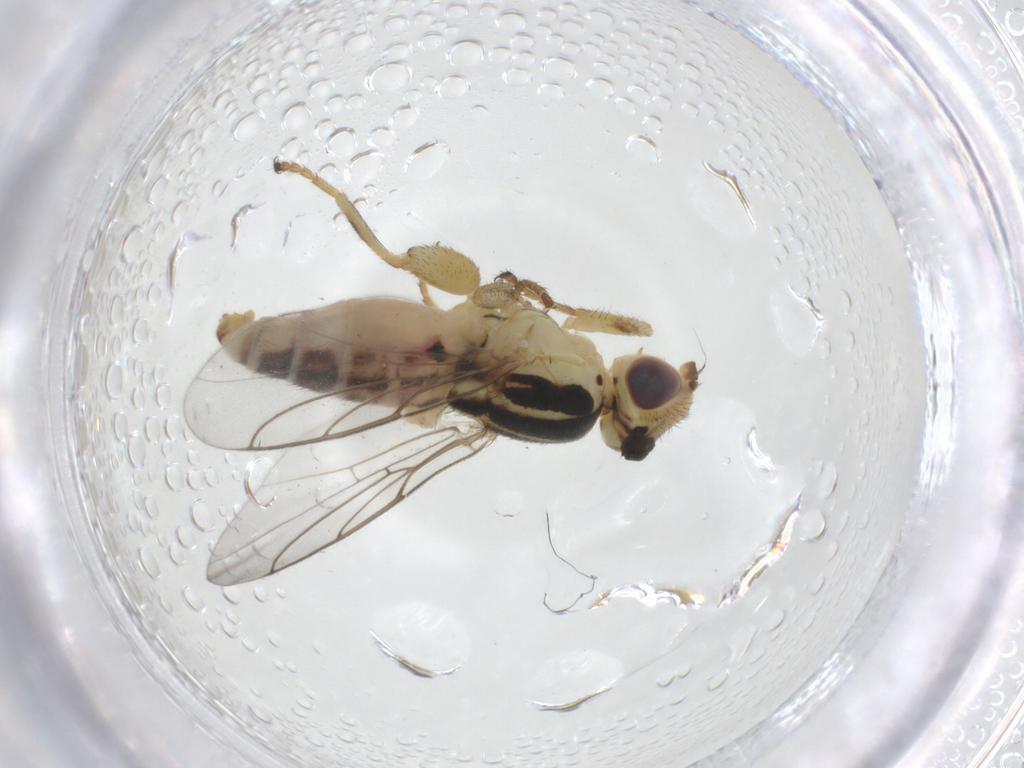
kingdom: Animalia
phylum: Arthropoda
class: Insecta
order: Diptera
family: Chloropidae
